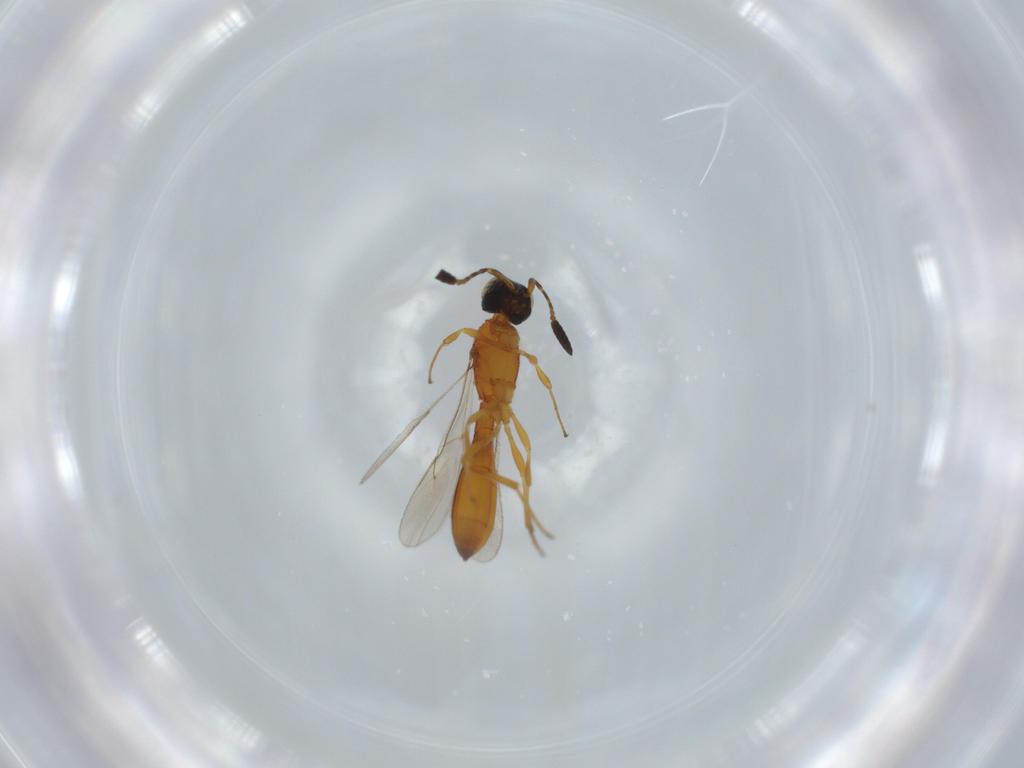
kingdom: Animalia
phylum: Arthropoda
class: Insecta
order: Hymenoptera
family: Scelionidae
